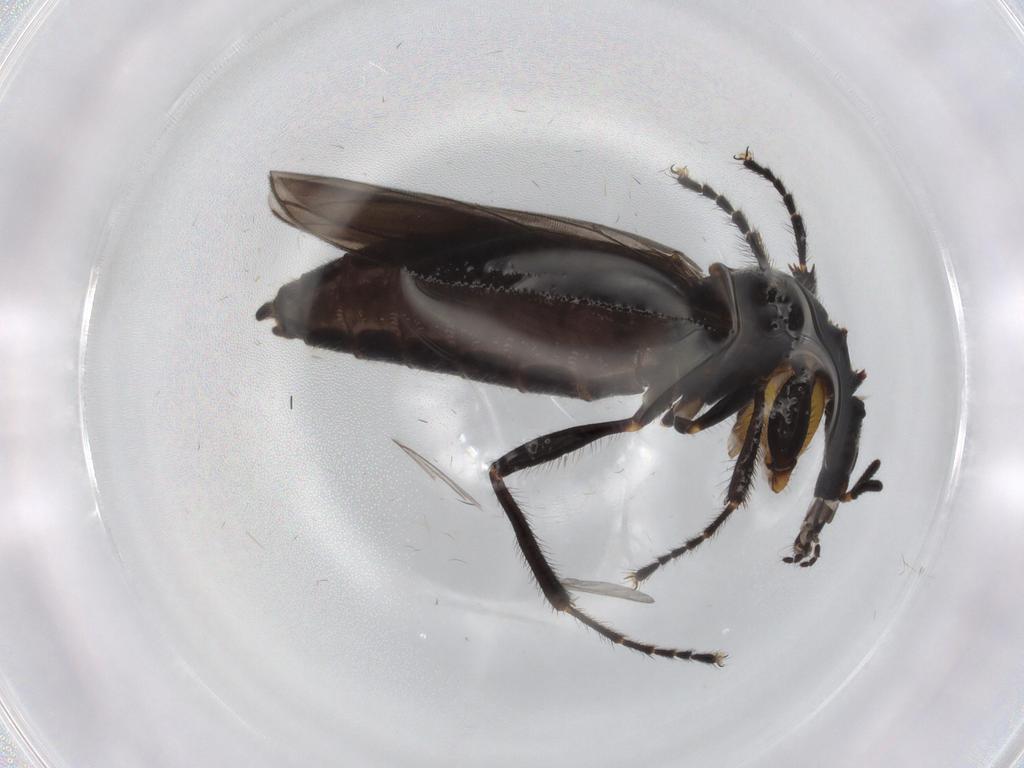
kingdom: Animalia
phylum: Arthropoda
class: Insecta
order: Diptera
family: Bibionidae
